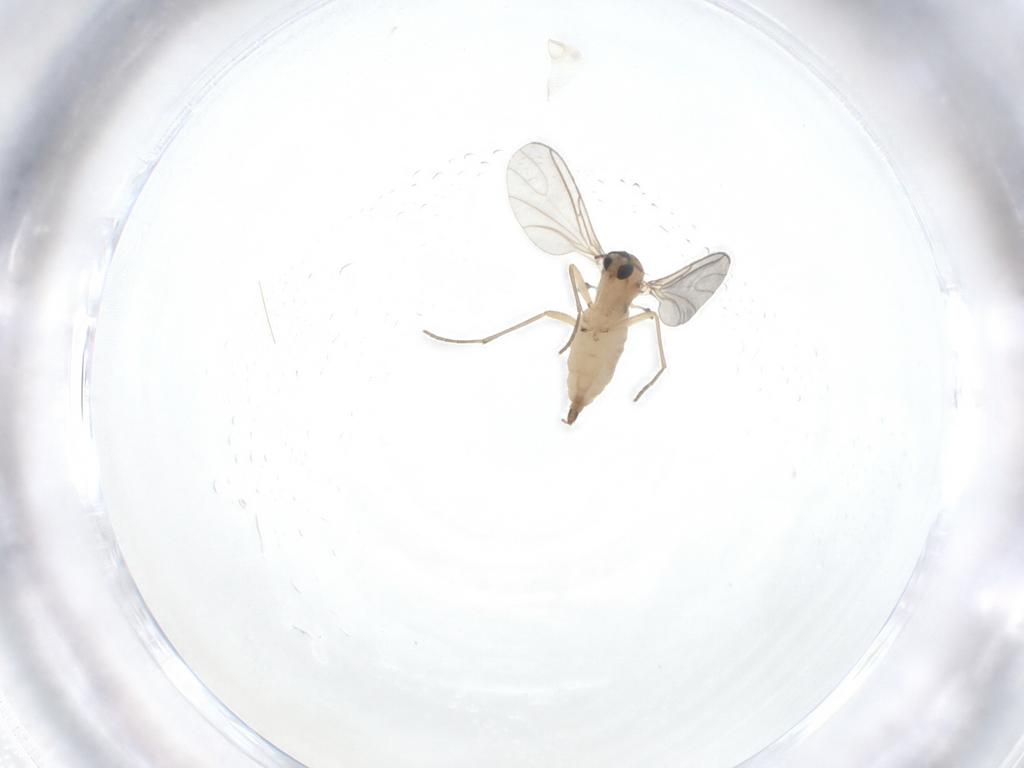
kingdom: Animalia
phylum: Arthropoda
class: Insecta
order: Diptera
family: Sciaridae
